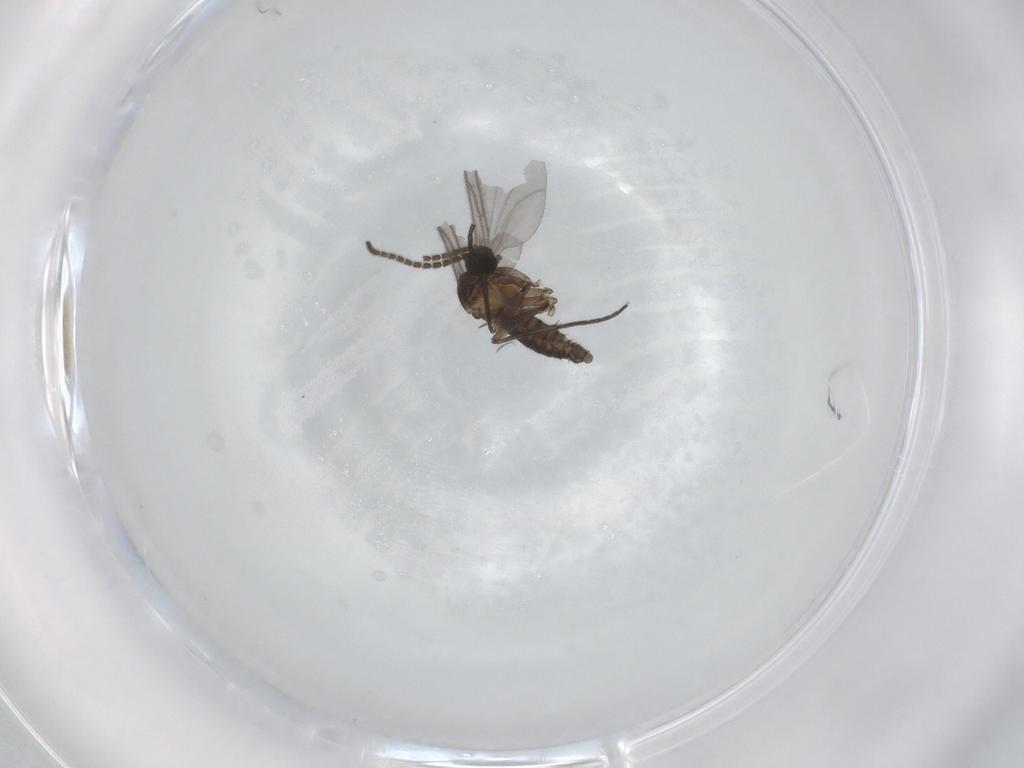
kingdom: Animalia
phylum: Arthropoda
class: Insecta
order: Diptera
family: Sciaridae
